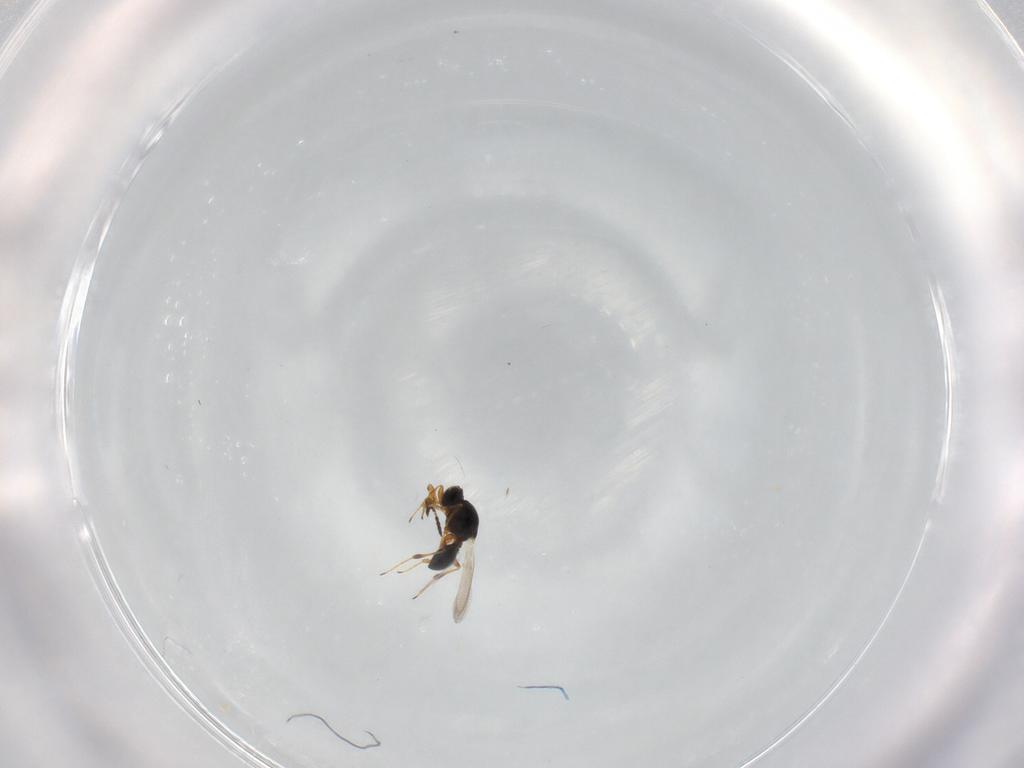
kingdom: Animalia
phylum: Arthropoda
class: Insecta
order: Hymenoptera
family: Platygastridae
